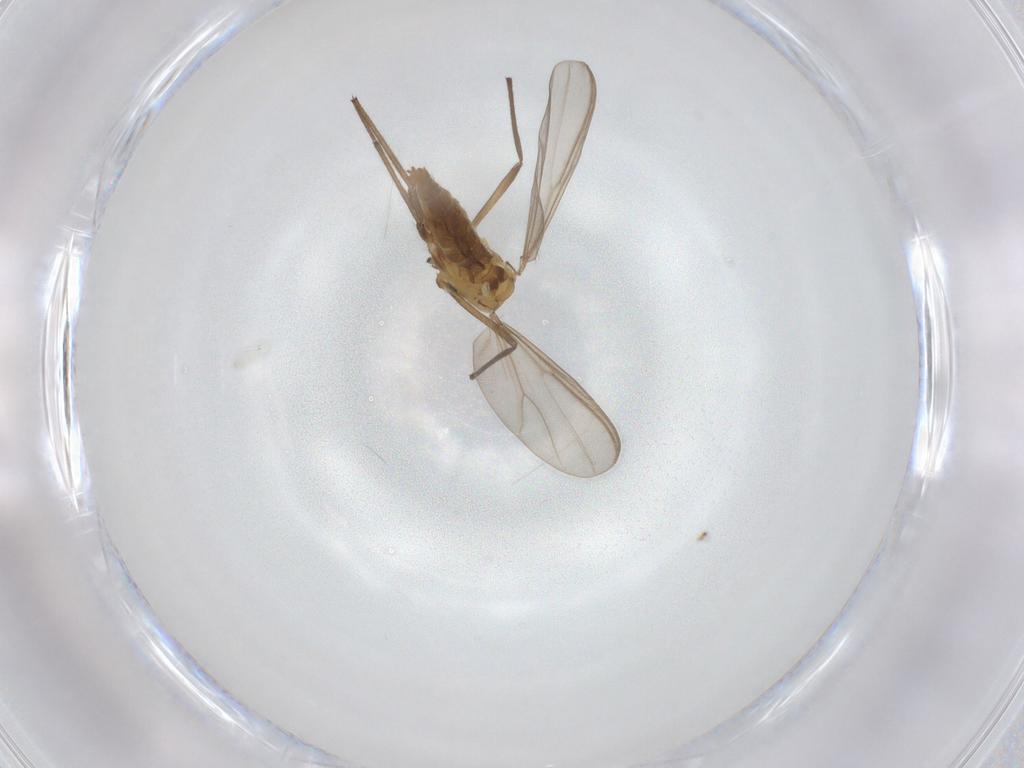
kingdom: Animalia
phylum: Arthropoda
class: Insecta
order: Diptera
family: Chironomidae
